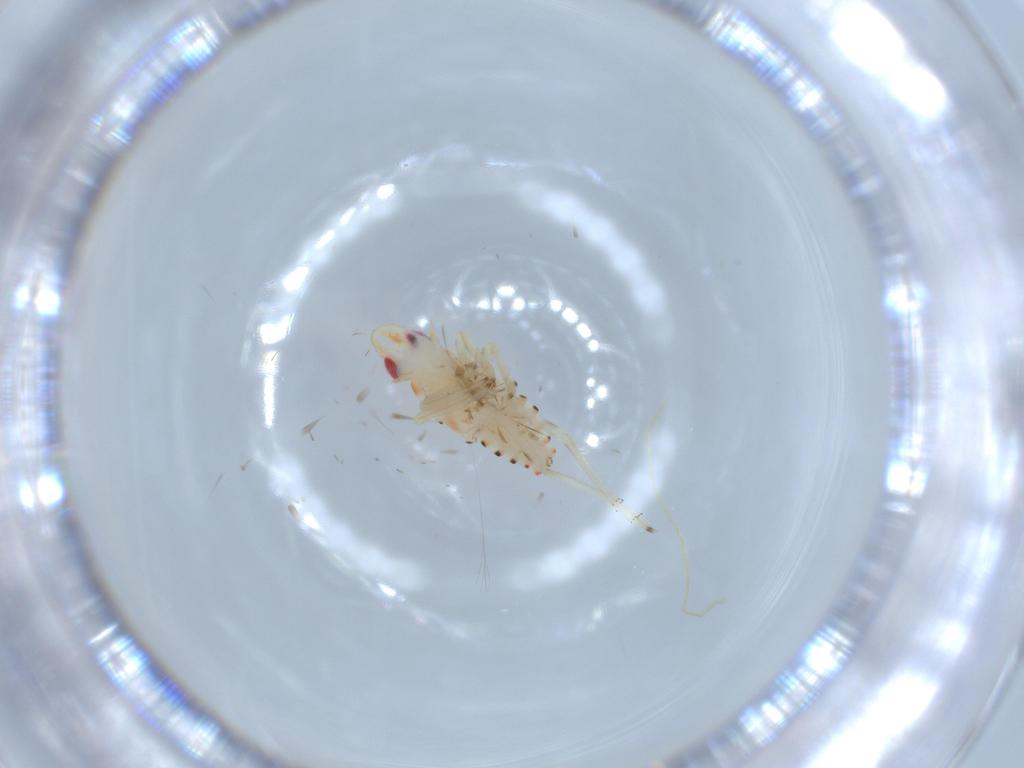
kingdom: Animalia
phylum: Arthropoda
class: Insecta
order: Hemiptera
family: Tropiduchidae
